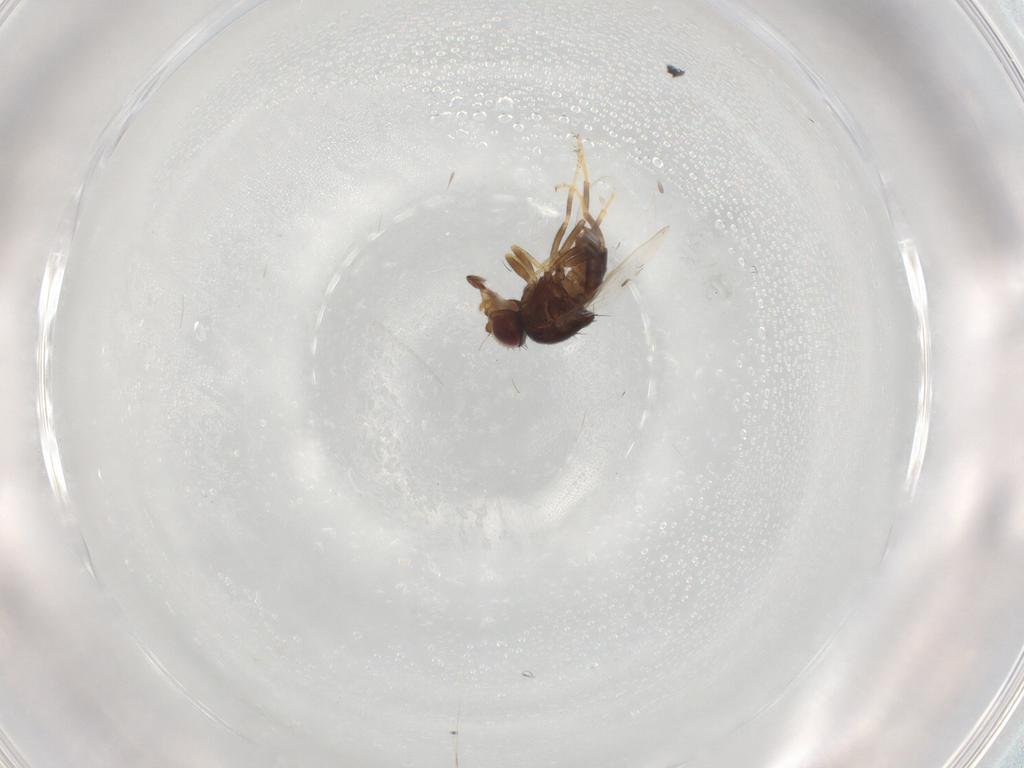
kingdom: Animalia
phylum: Arthropoda
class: Insecta
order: Diptera
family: Chloropidae
